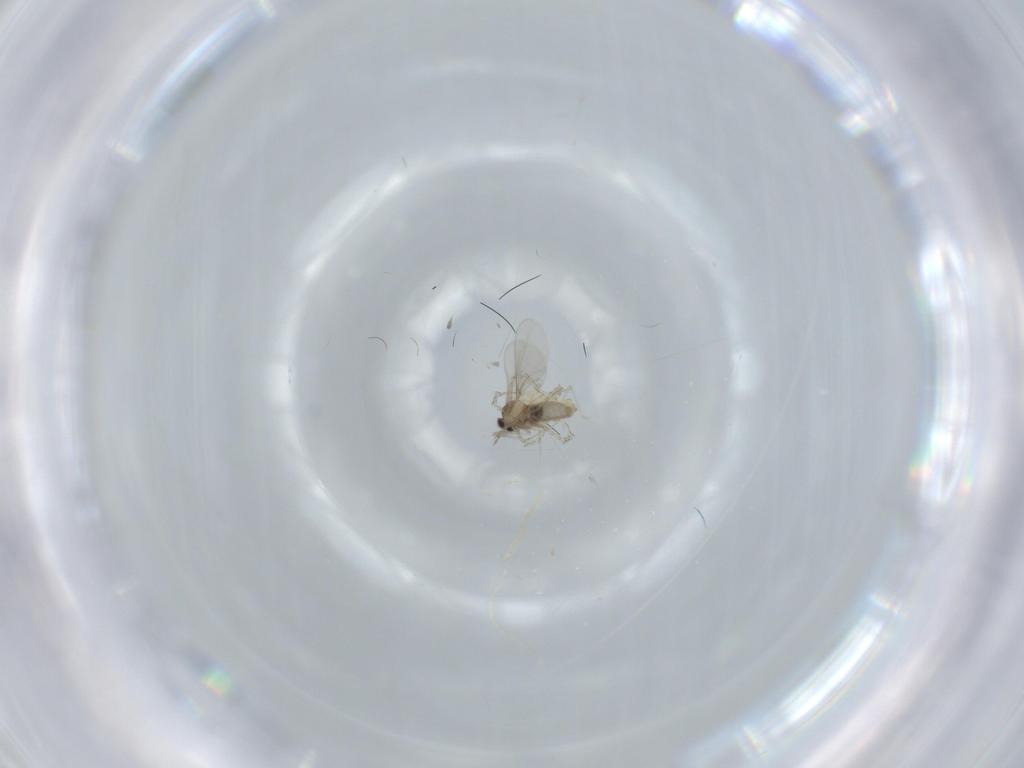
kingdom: Animalia
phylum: Arthropoda
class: Insecta
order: Diptera
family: Cecidomyiidae
